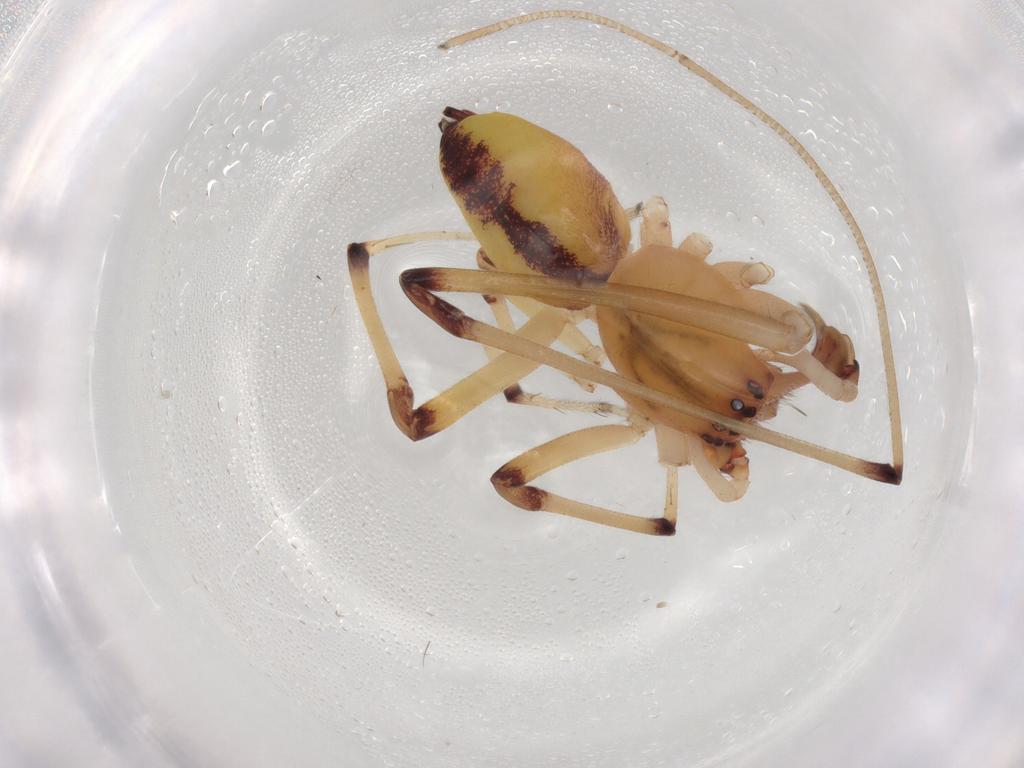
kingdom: Animalia
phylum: Arthropoda
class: Arachnida
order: Araneae
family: Cheiracanthiidae
